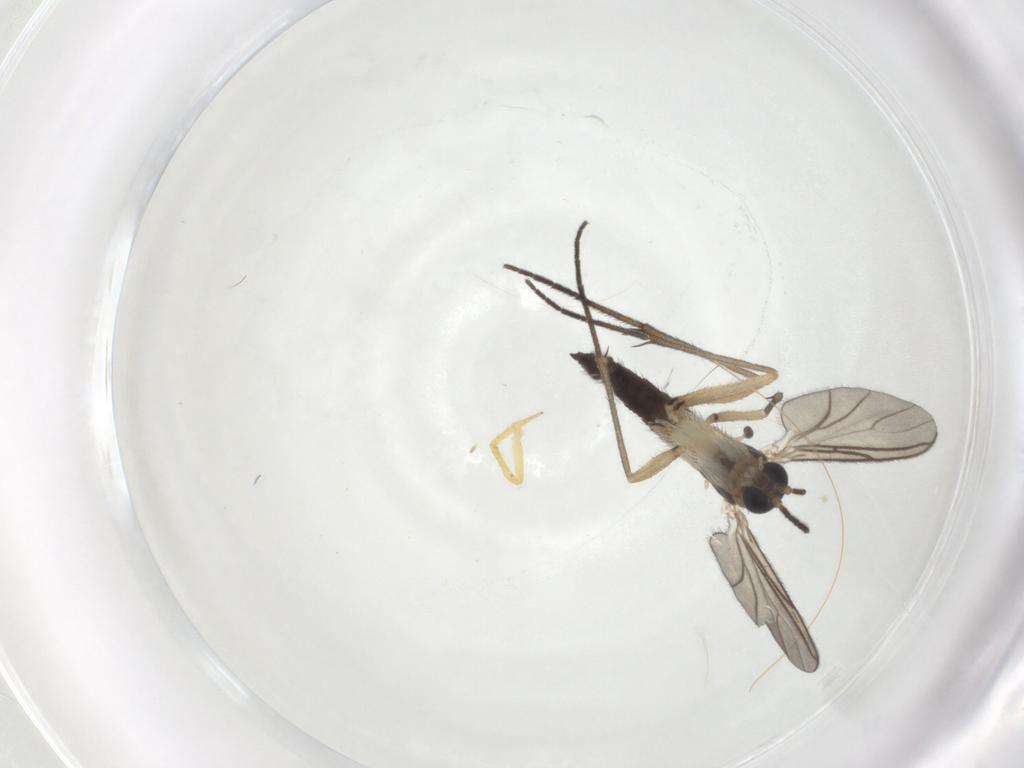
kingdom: Animalia
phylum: Arthropoda
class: Insecta
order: Diptera
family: Sciaridae
